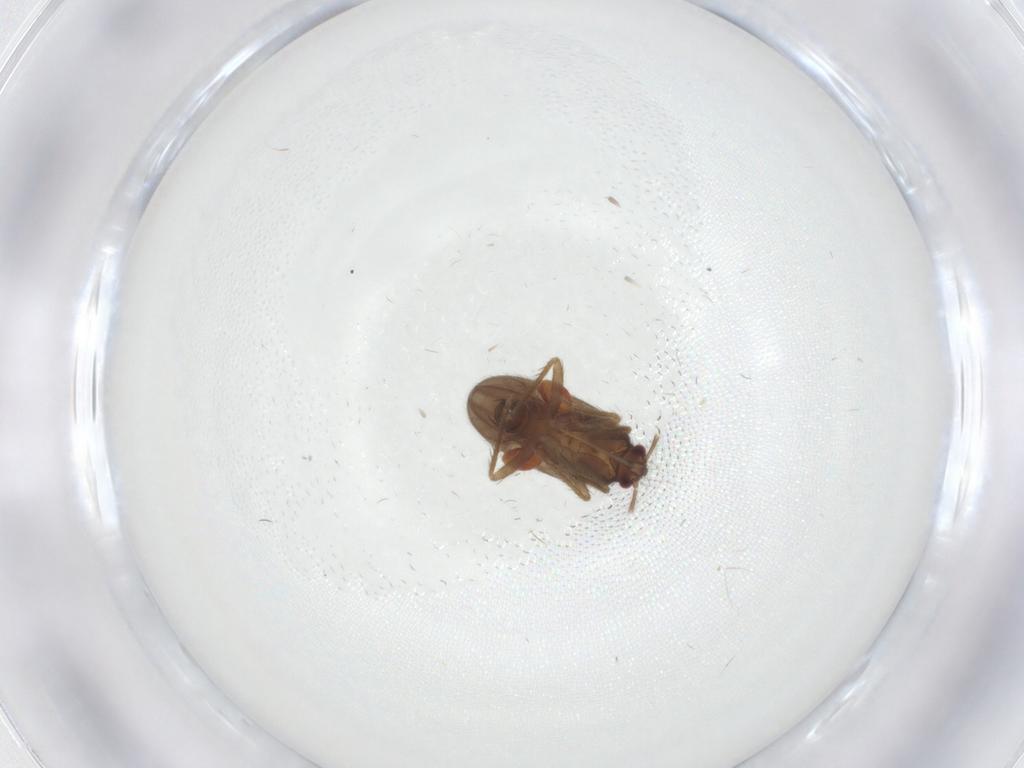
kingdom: Animalia
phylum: Arthropoda
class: Insecta
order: Hemiptera
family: Ceratocombidae
